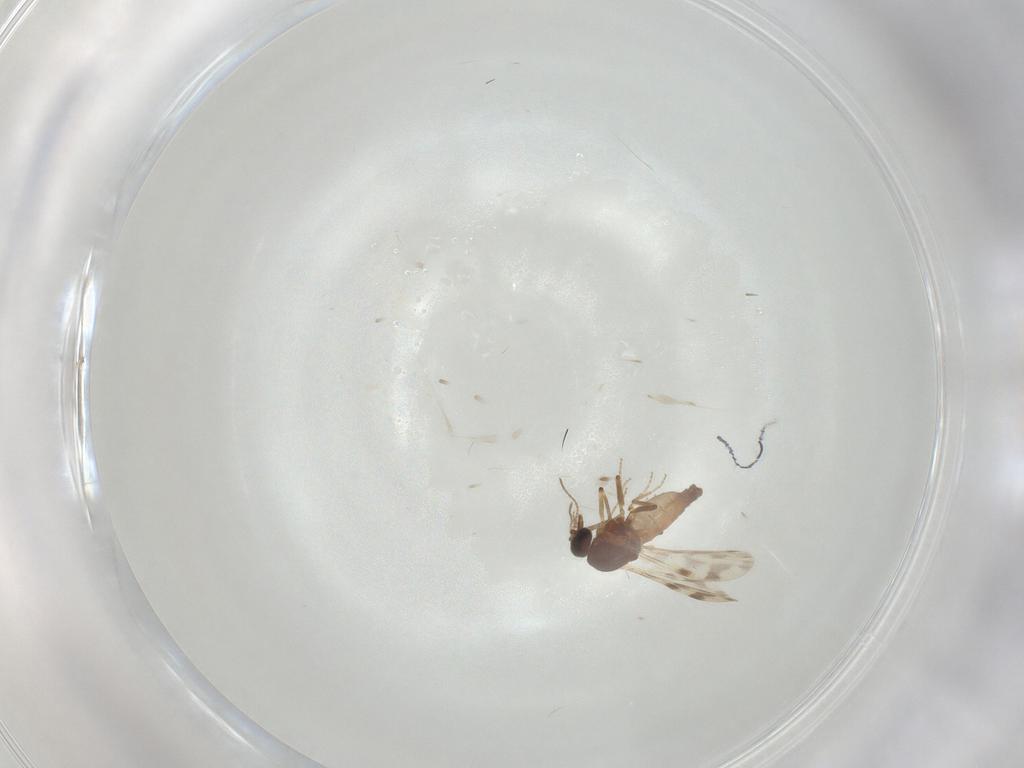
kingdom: Animalia
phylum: Arthropoda
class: Insecta
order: Diptera
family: Ceratopogonidae
